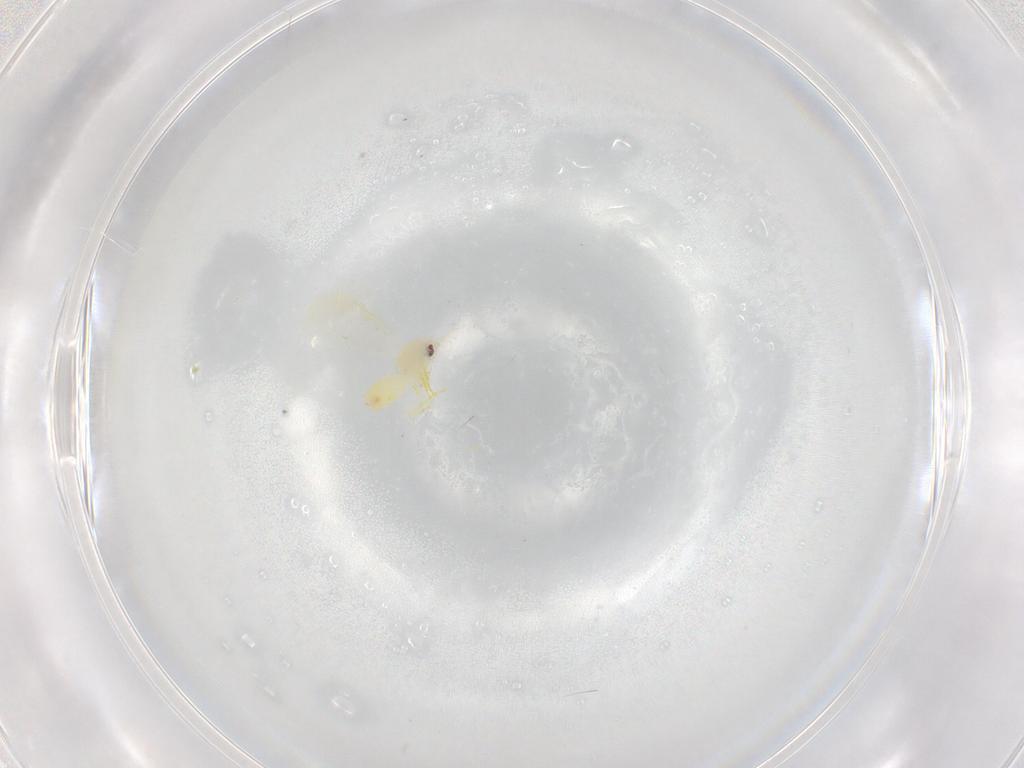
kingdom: Animalia
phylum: Arthropoda
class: Insecta
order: Hemiptera
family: Aleyrodidae
